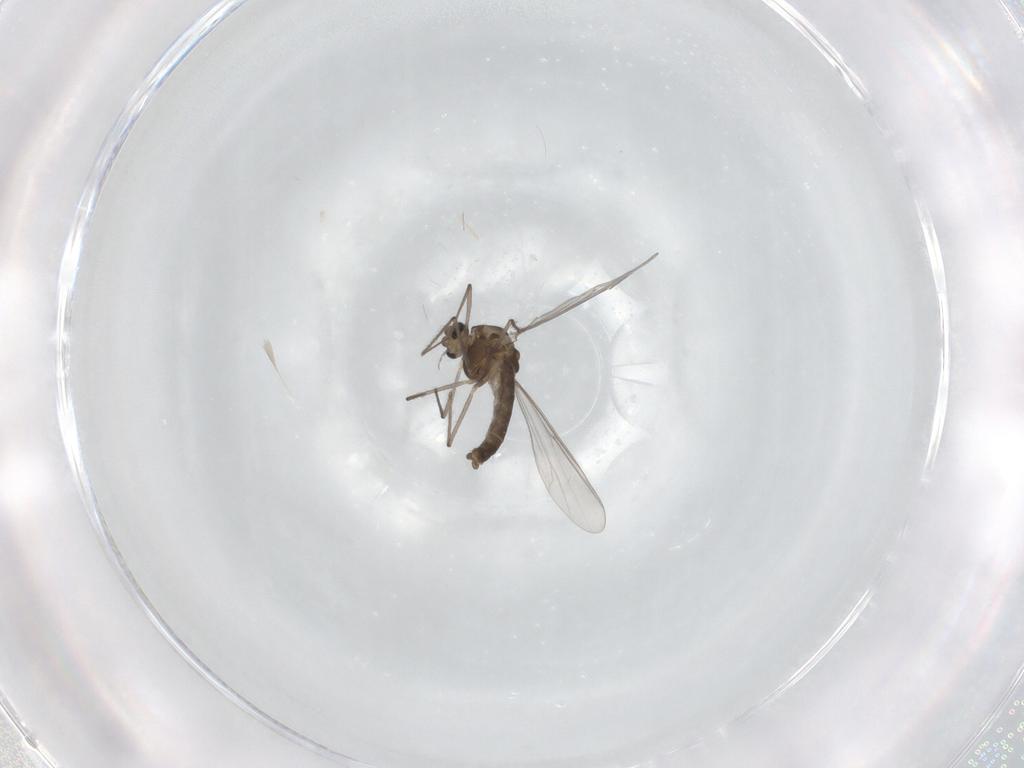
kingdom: Animalia
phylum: Arthropoda
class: Insecta
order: Diptera
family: Chironomidae
